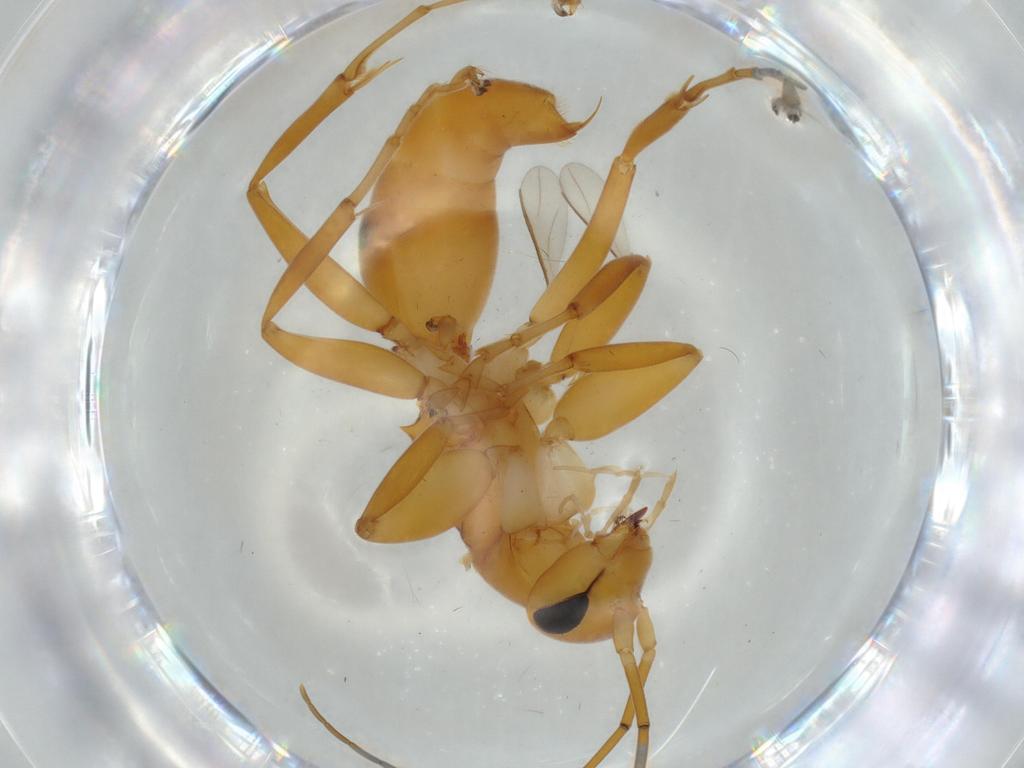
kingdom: Animalia
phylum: Arthropoda
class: Insecta
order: Hymenoptera
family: Rhopalosomatidae
